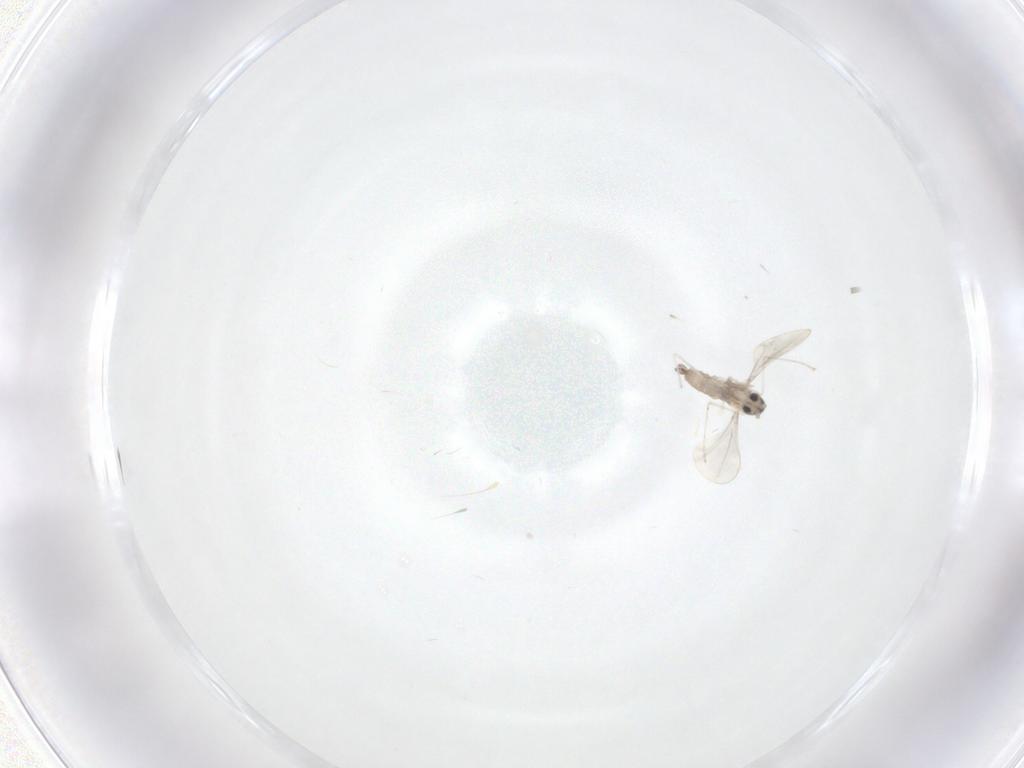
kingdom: Animalia
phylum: Arthropoda
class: Insecta
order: Diptera
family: Cecidomyiidae
